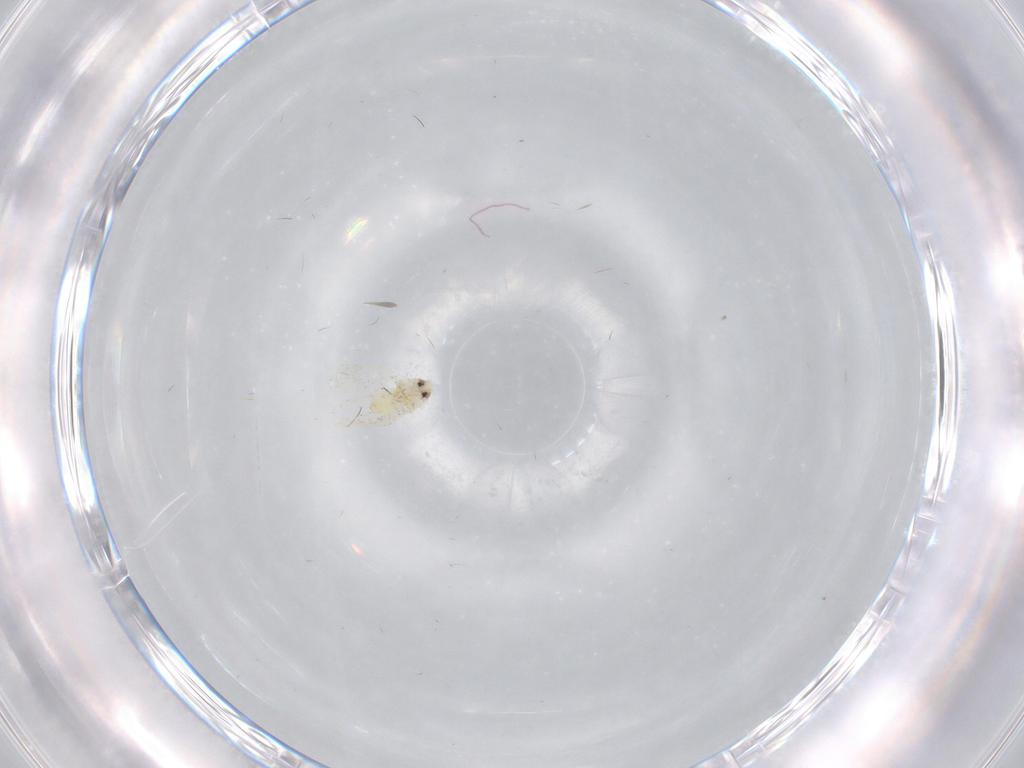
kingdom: Animalia
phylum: Arthropoda
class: Insecta
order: Hemiptera
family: Aleyrodidae
